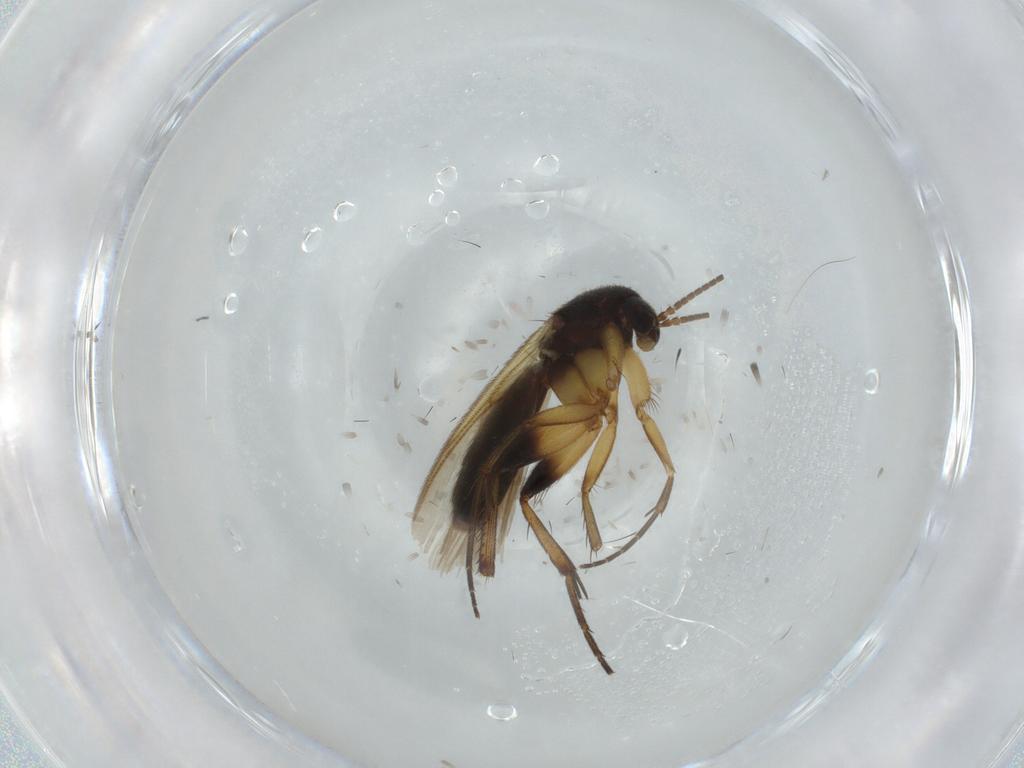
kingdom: Animalia
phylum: Arthropoda
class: Insecta
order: Diptera
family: Mycetophilidae
